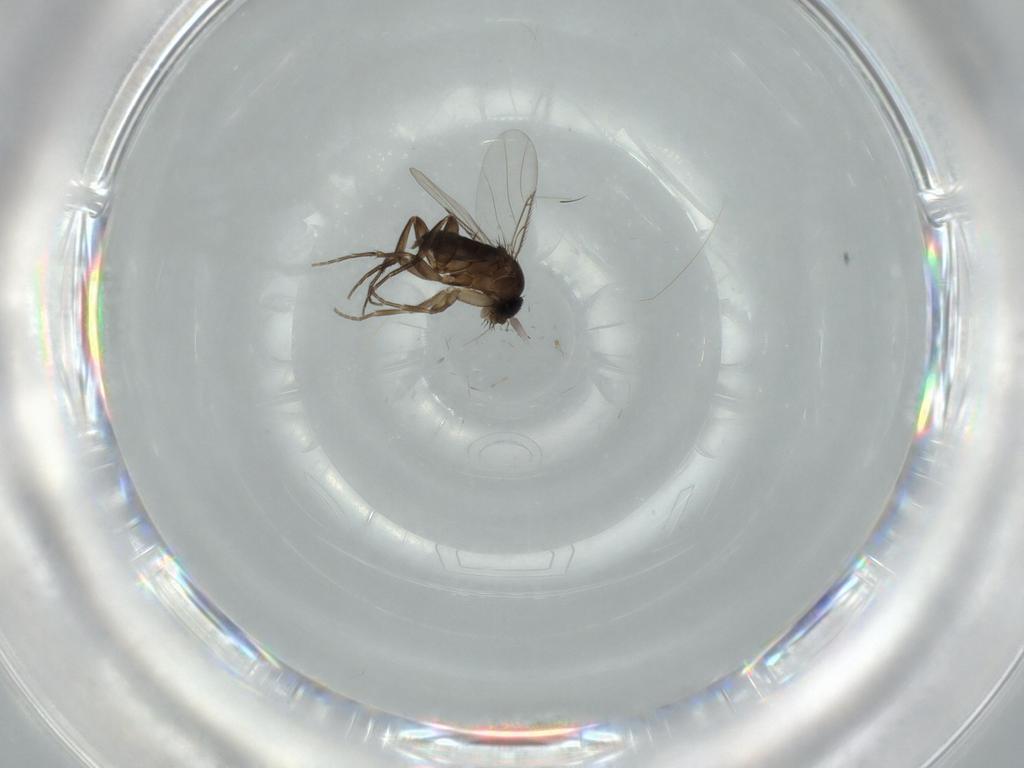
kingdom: Animalia
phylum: Arthropoda
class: Insecta
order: Diptera
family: Phoridae
